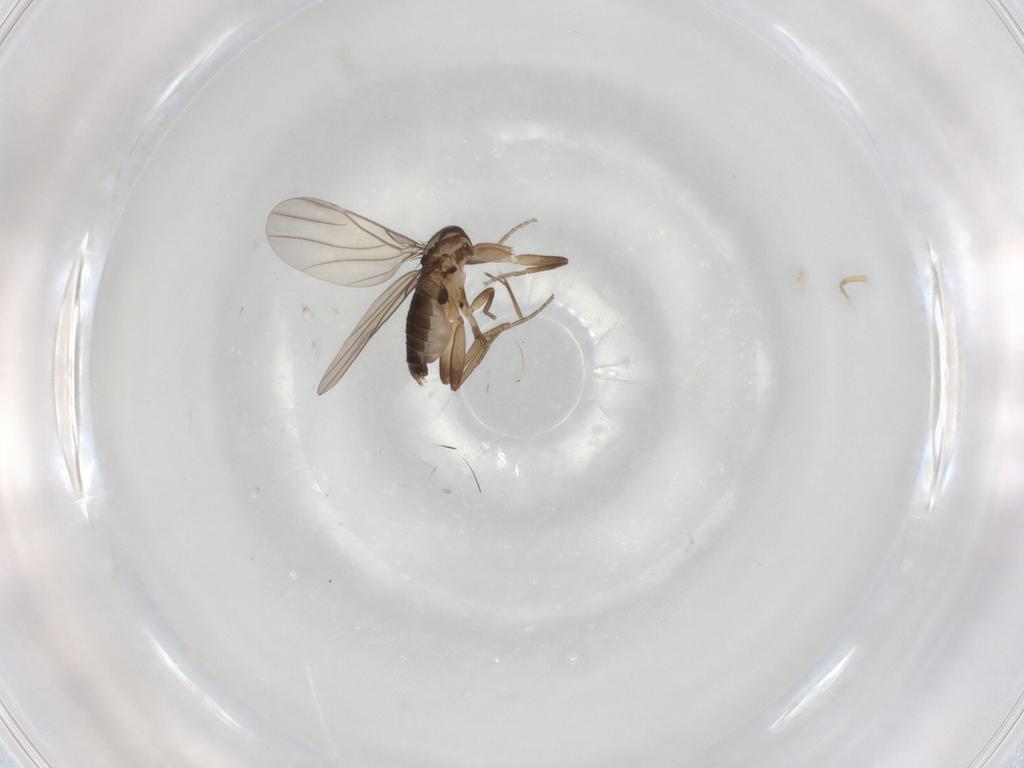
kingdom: Animalia
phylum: Arthropoda
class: Insecta
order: Diptera
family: Phoridae
